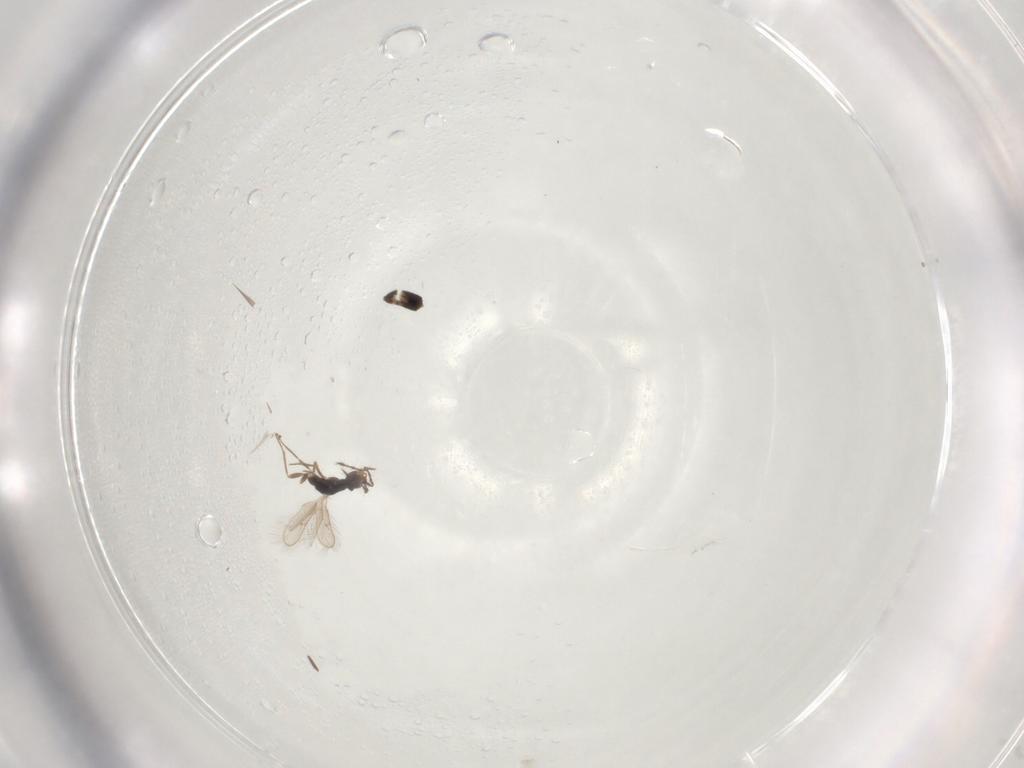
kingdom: Animalia
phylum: Arthropoda
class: Insecta
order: Hymenoptera
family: Pteromalidae
